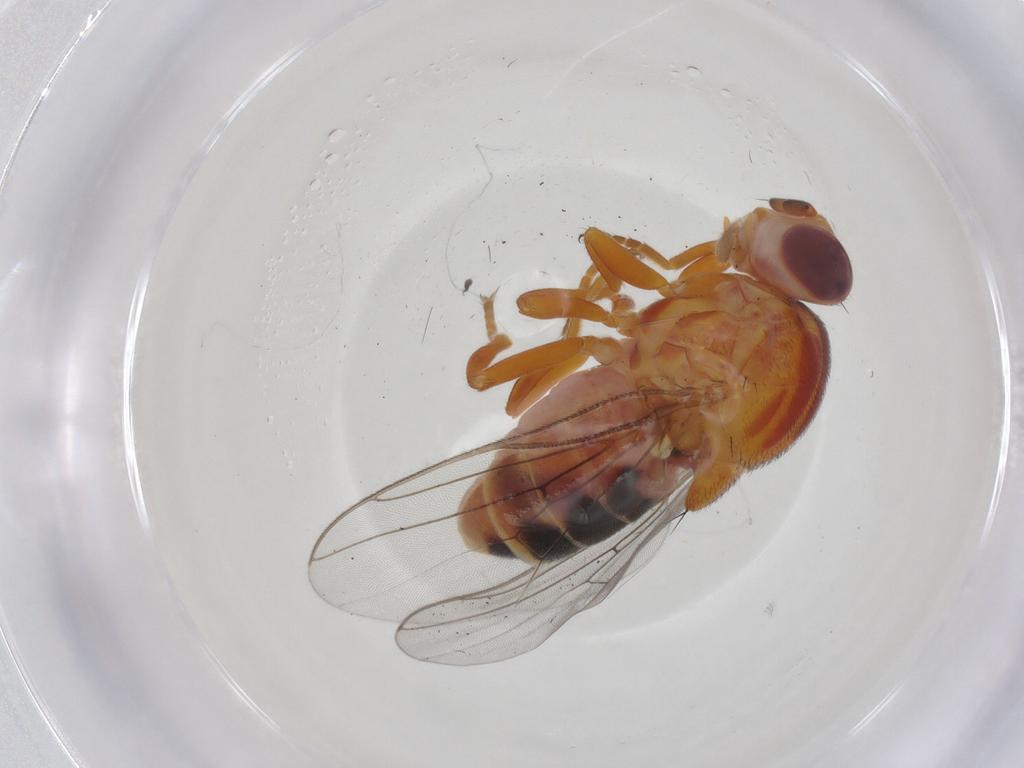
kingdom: Animalia
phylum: Arthropoda
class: Insecta
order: Diptera
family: Chloropidae
